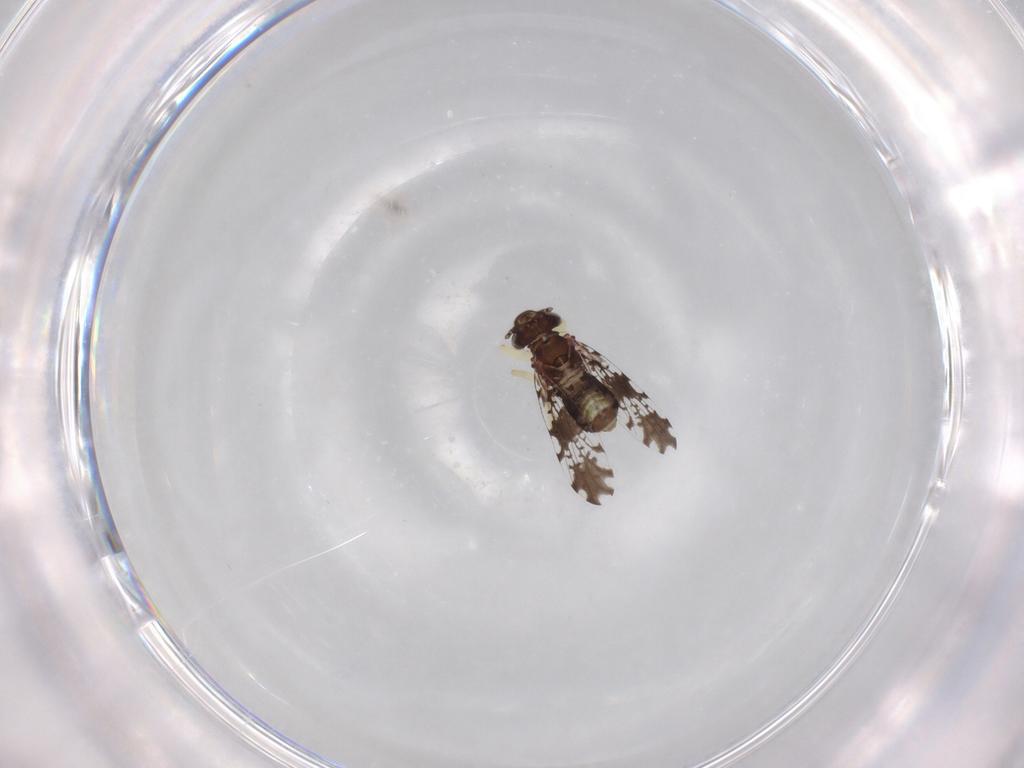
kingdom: Animalia
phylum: Arthropoda
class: Insecta
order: Psocodea
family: Psoquillidae
